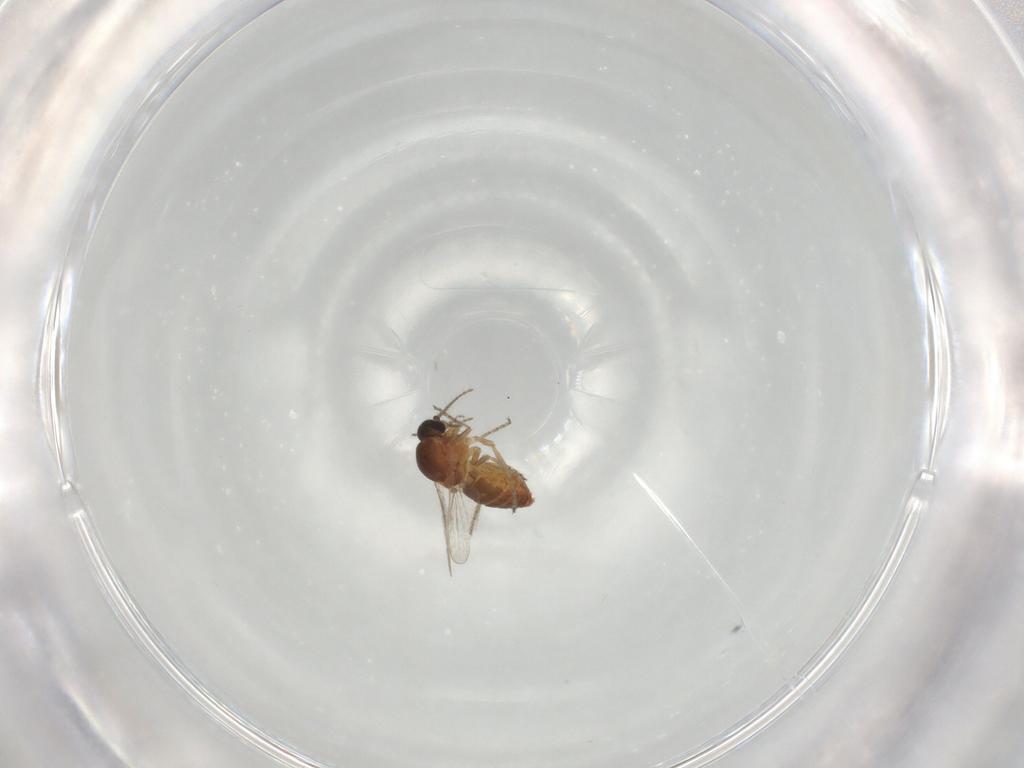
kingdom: Animalia
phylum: Arthropoda
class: Insecta
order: Diptera
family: Ceratopogonidae
